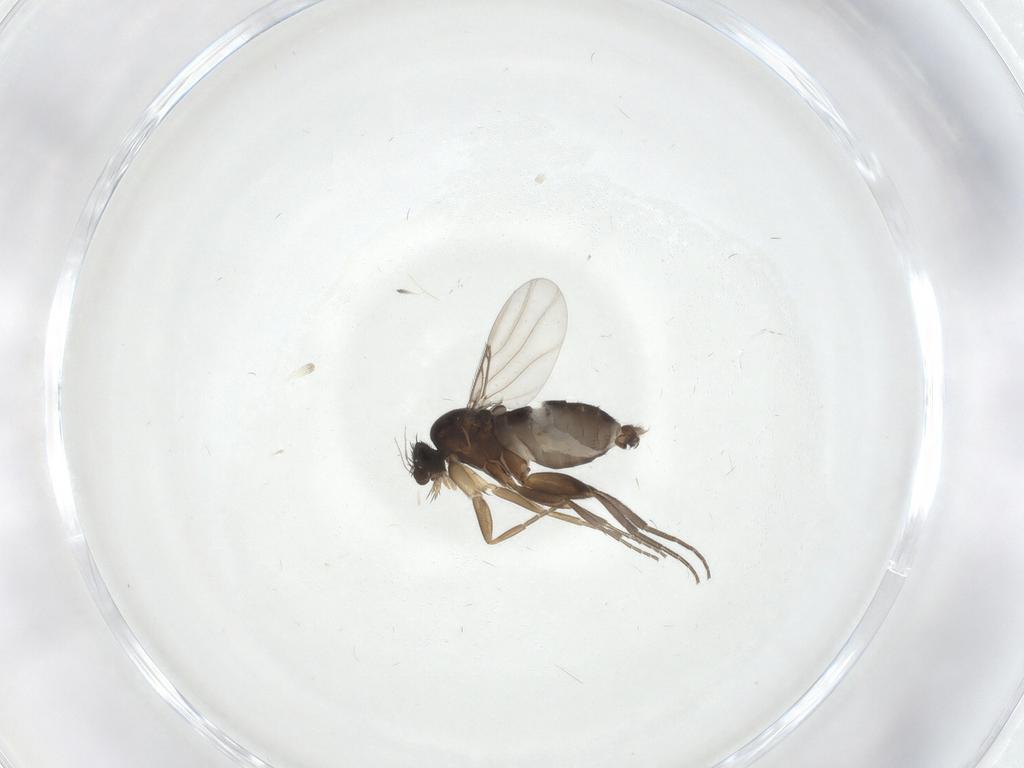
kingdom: Animalia
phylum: Arthropoda
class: Insecta
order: Diptera
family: Phoridae
